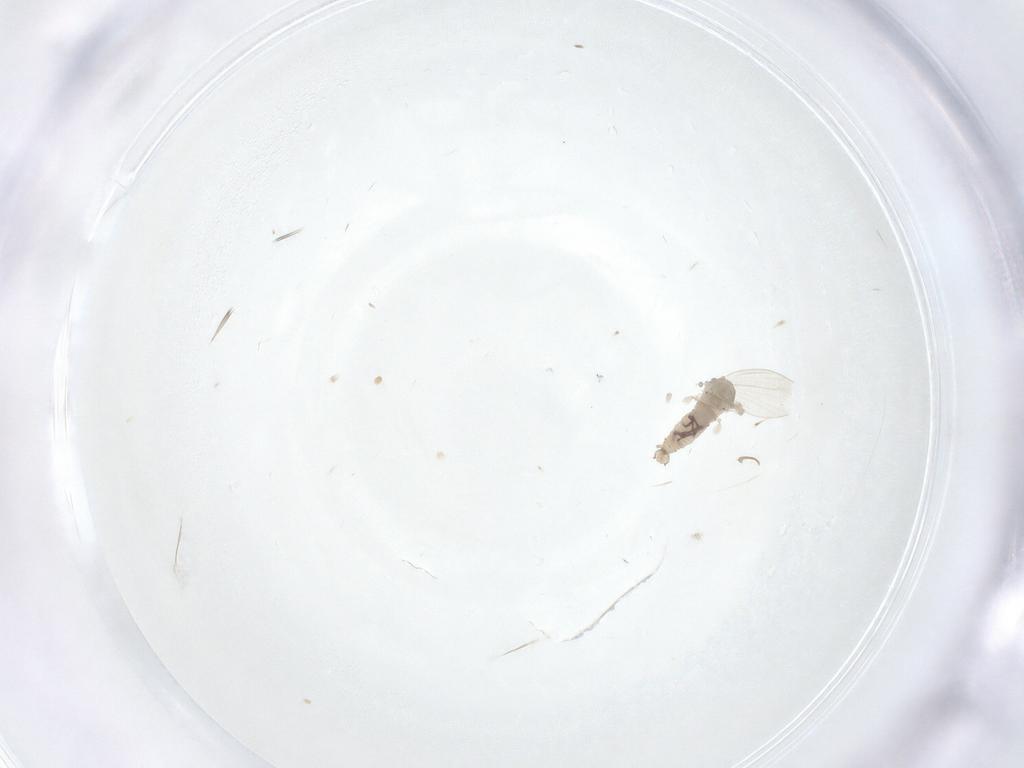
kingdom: Animalia
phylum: Arthropoda
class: Insecta
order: Diptera
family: Psychodidae
